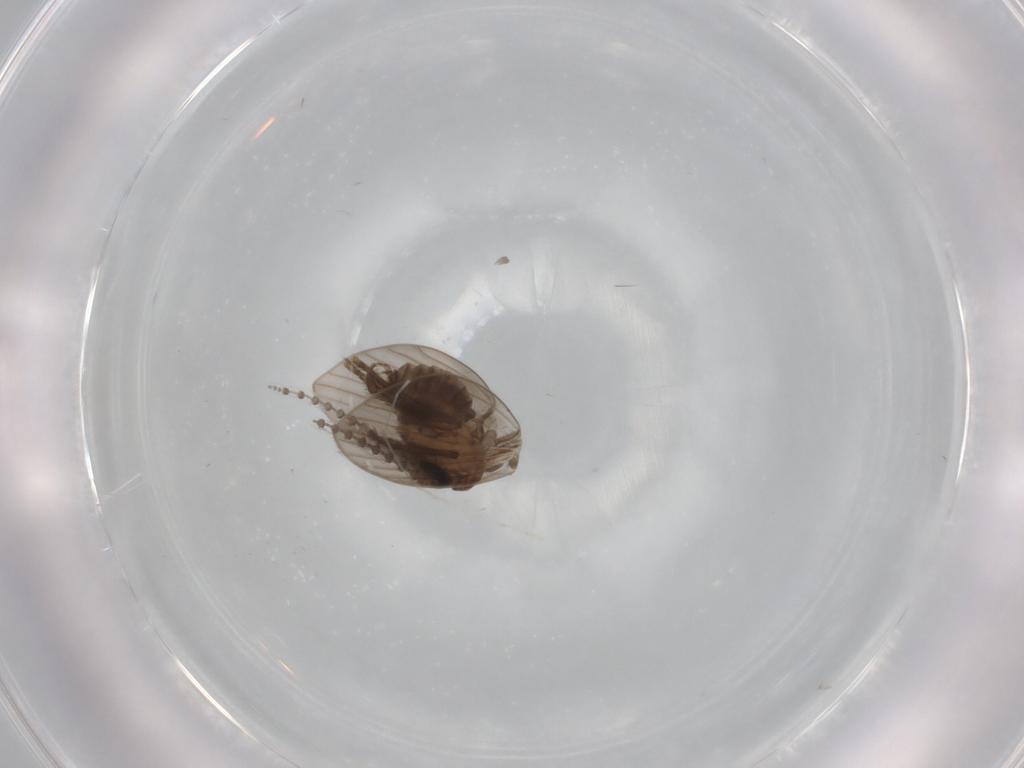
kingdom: Animalia
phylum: Arthropoda
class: Insecta
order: Diptera
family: Psychodidae
